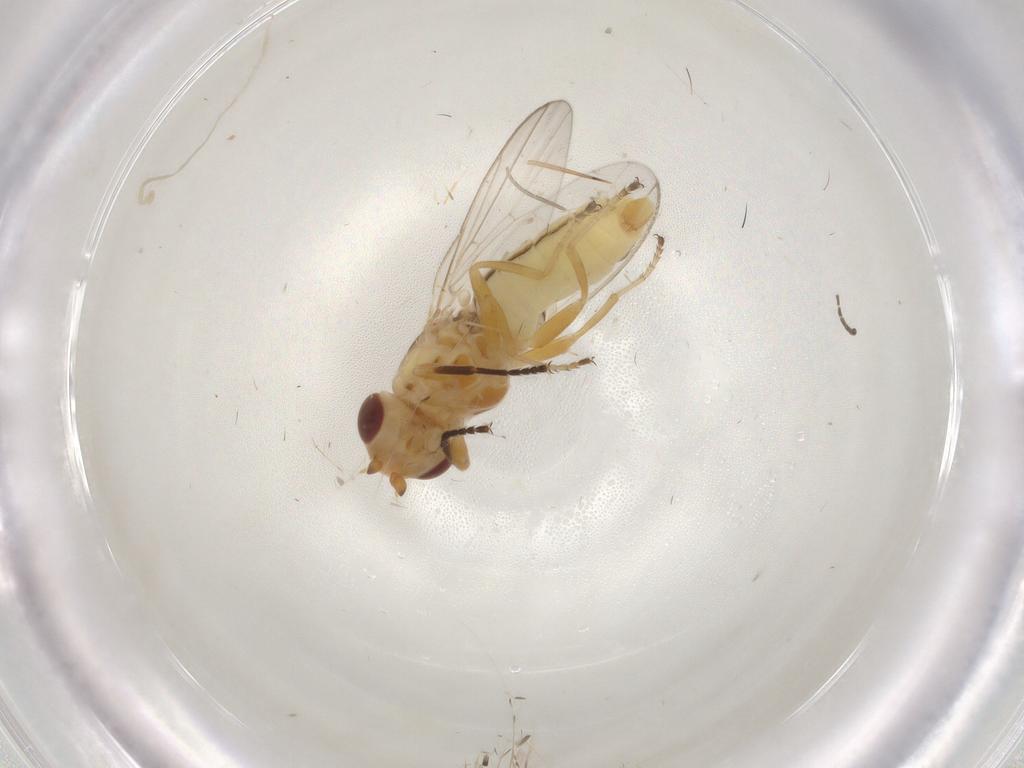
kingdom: Animalia
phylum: Arthropoda
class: Insecta
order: Diptera
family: Chloropidae
